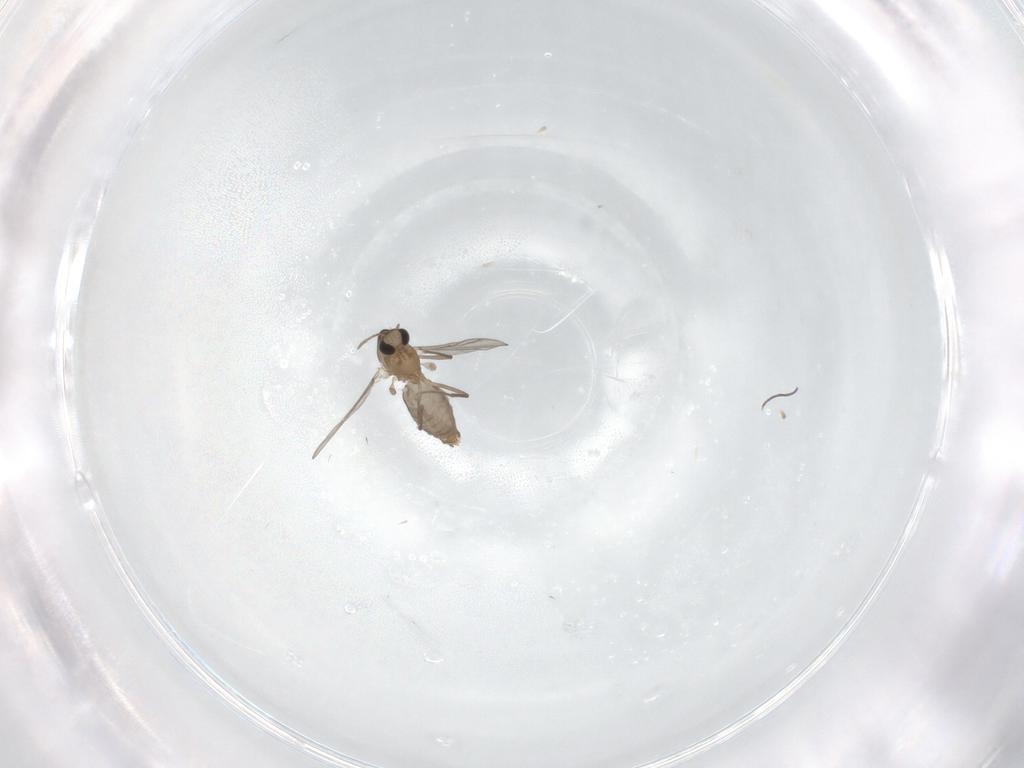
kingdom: Animalia
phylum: Arthropoda
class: Insecta
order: Diptera
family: Chironomidae
